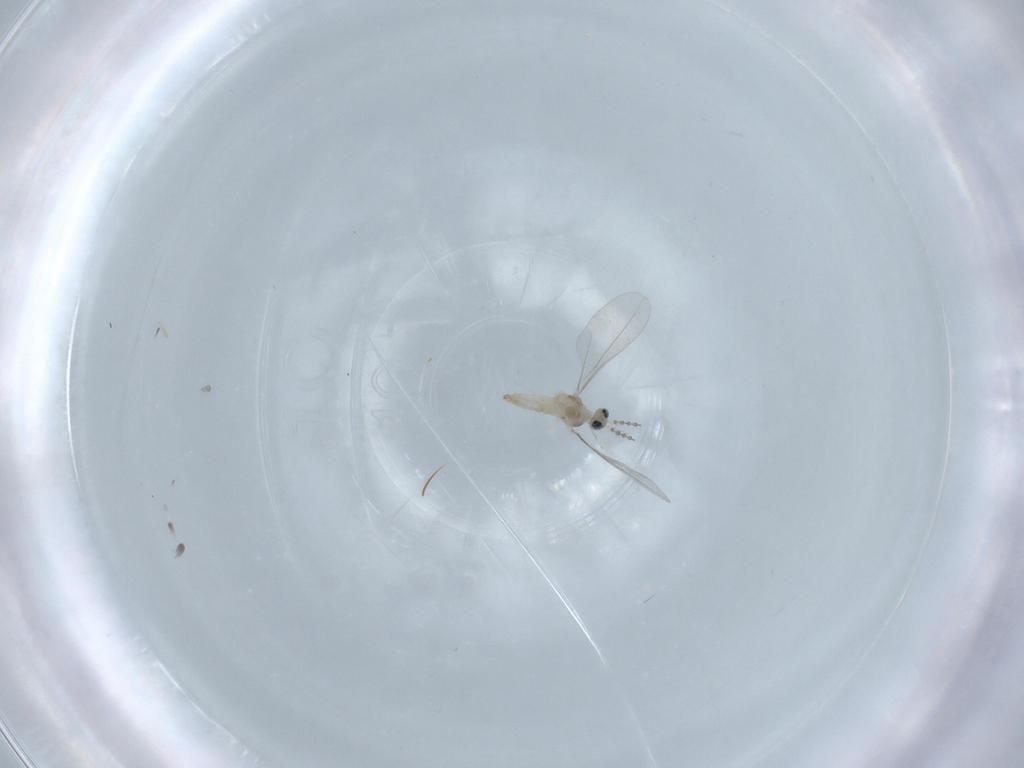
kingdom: Animalia
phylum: Arthropoda
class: Insecta
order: Diptera
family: Cecidomyiidae
